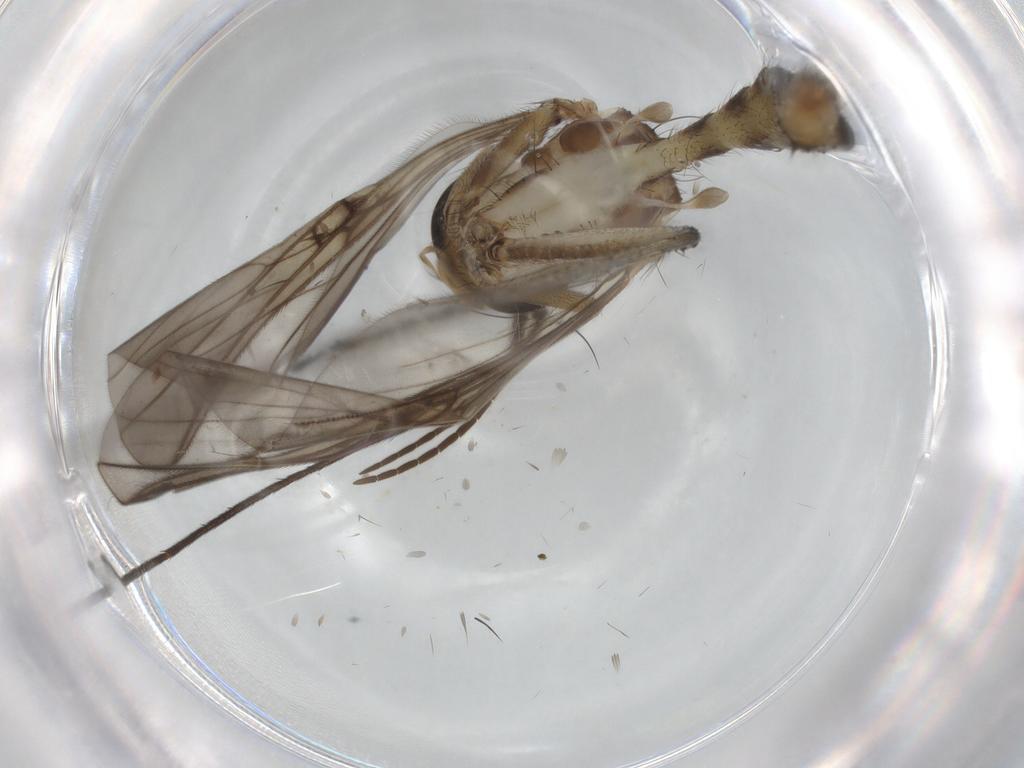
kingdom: Animalia
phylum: Arthropoda
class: Insecta
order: Diptera
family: Mycetophilidae
